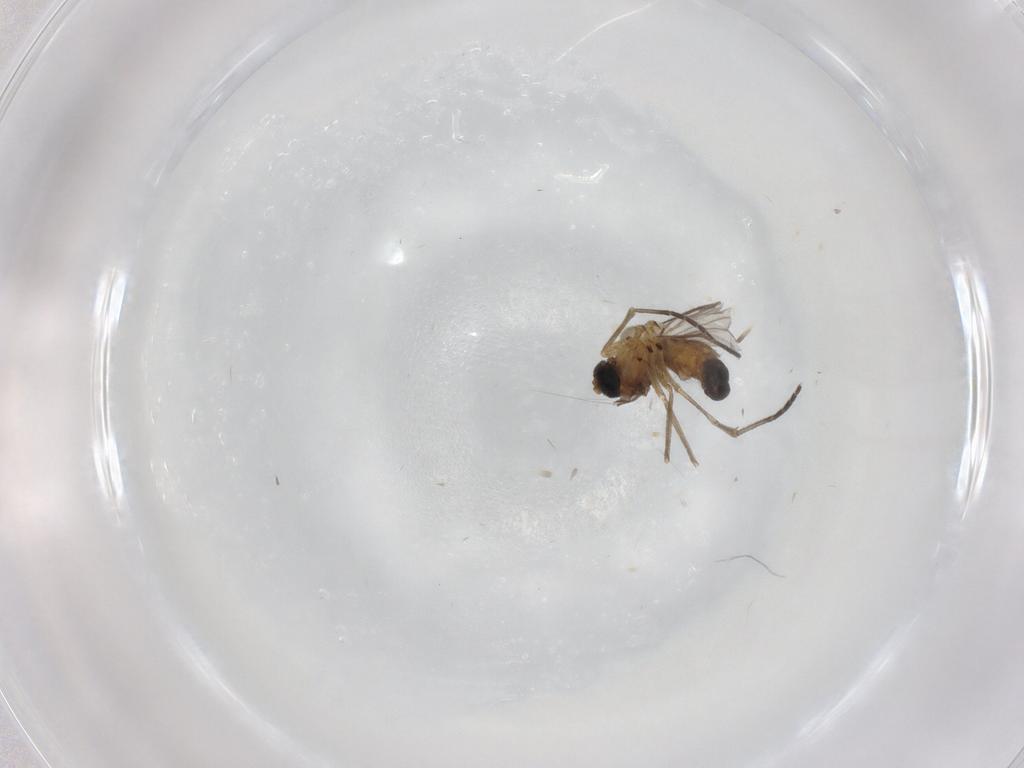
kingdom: Animalia
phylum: Arthropoda
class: Insecta
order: Diptera
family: Sciaridae
